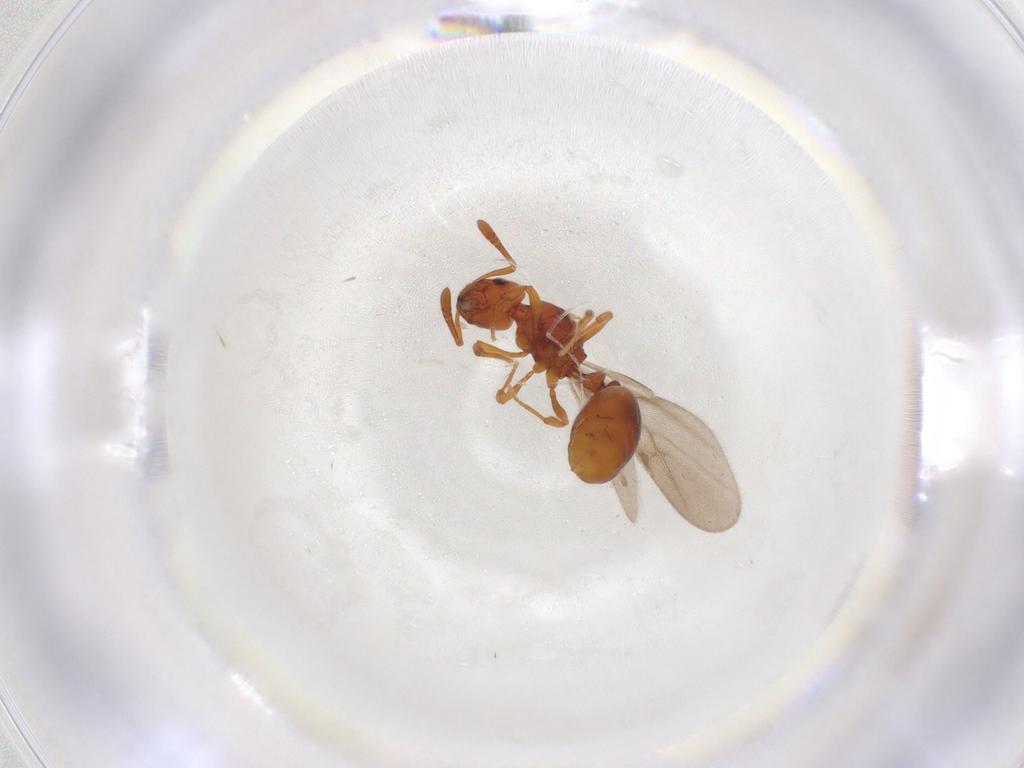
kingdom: Animalia
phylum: Arthropoda
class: Insecta
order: Hymenoptera
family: Formicidae
